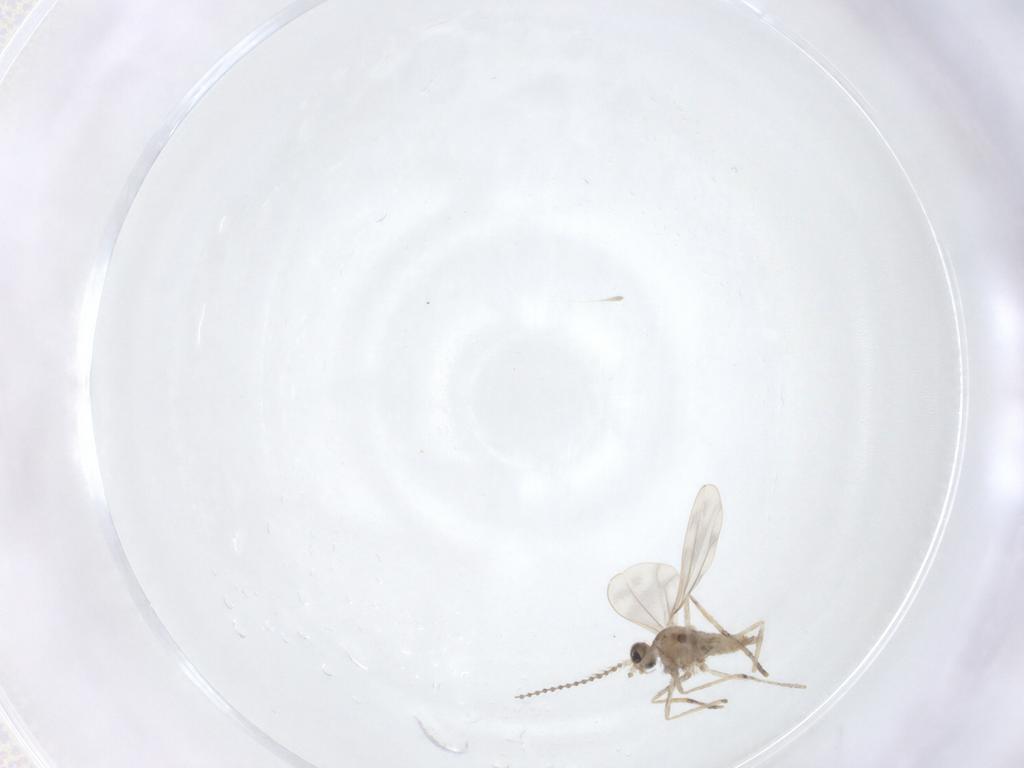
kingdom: Animalia
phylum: Arthropoda
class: Insecta
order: Diptera
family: Cecidomyiidae
